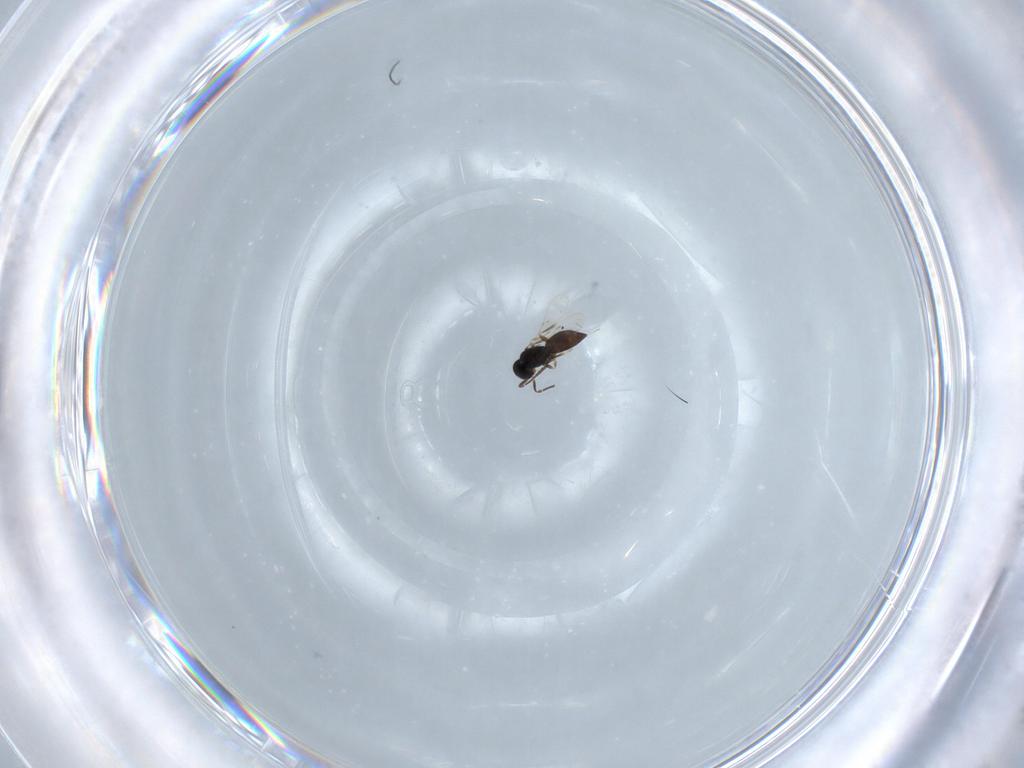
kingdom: Animalia
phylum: Arthropoda
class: Insecta
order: Hymenoptera
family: Scelionidae
